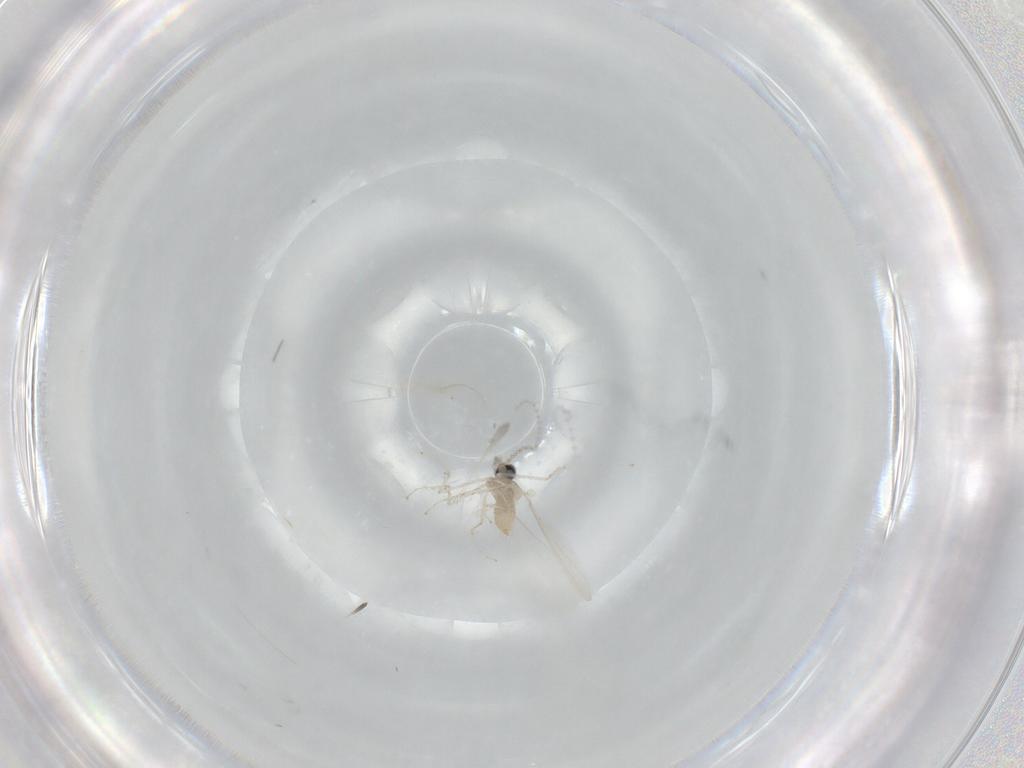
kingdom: Animalia
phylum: Arthropoda
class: Insecta
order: Diptera
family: Cecidomyiidae
